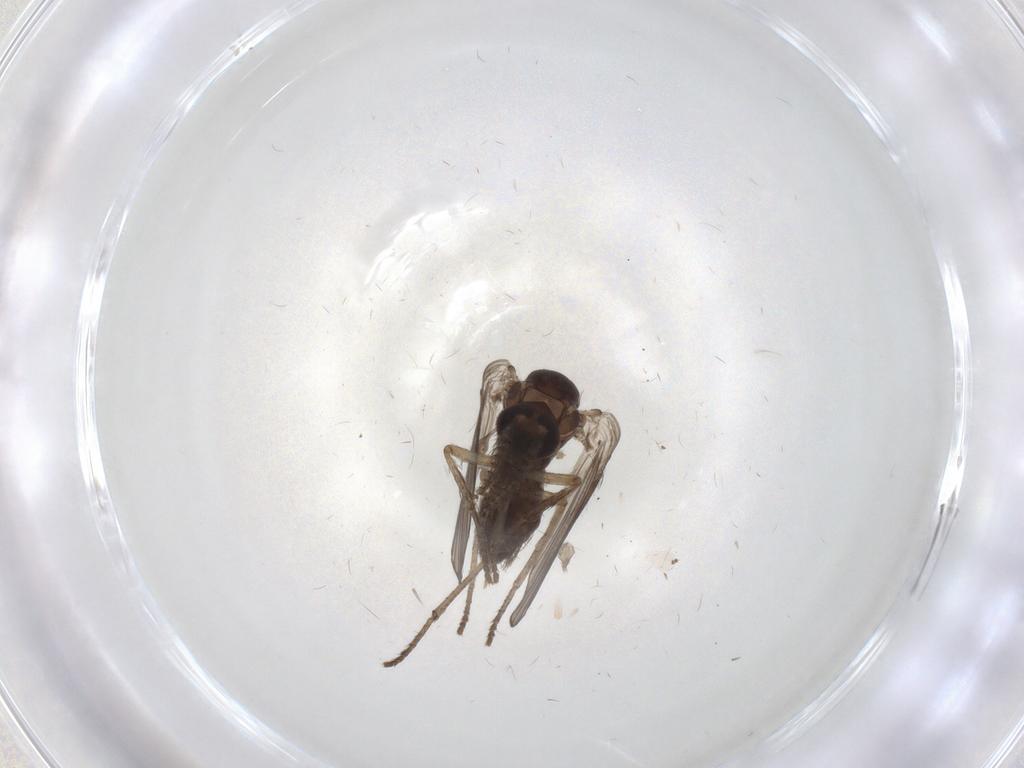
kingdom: Animalia
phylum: Arthropoda
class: Insecta
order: Diptera
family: Psychodidae
